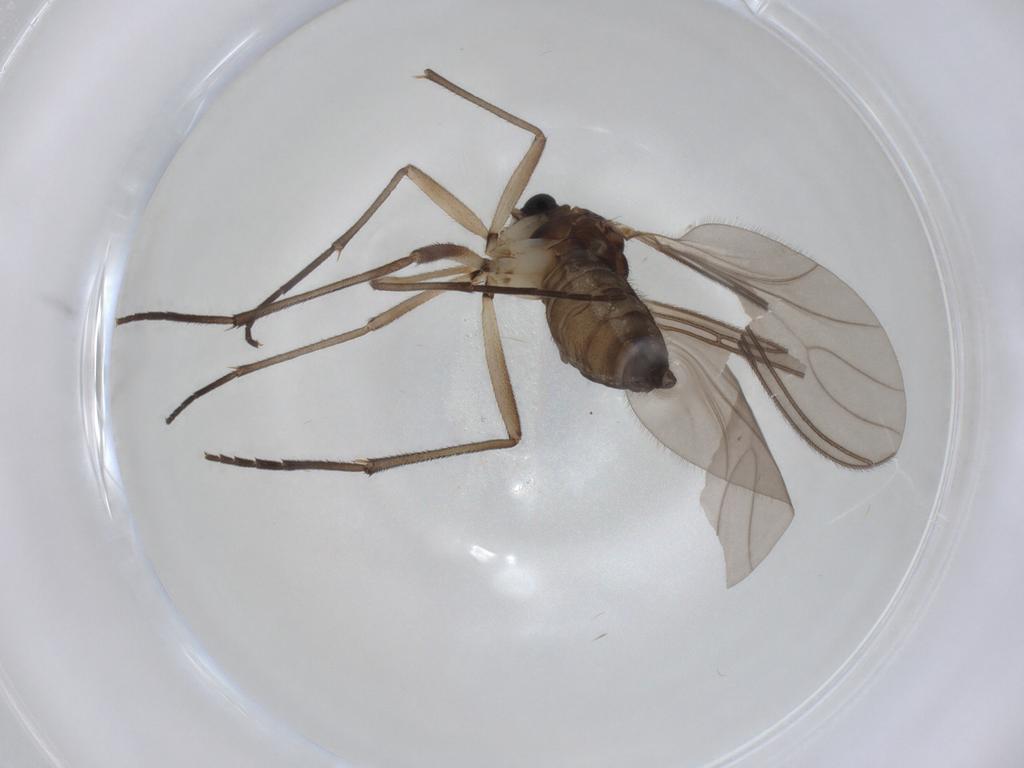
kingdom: Animalia
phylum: Arthropoda
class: Insecta
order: Diptera
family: Sciaridae
